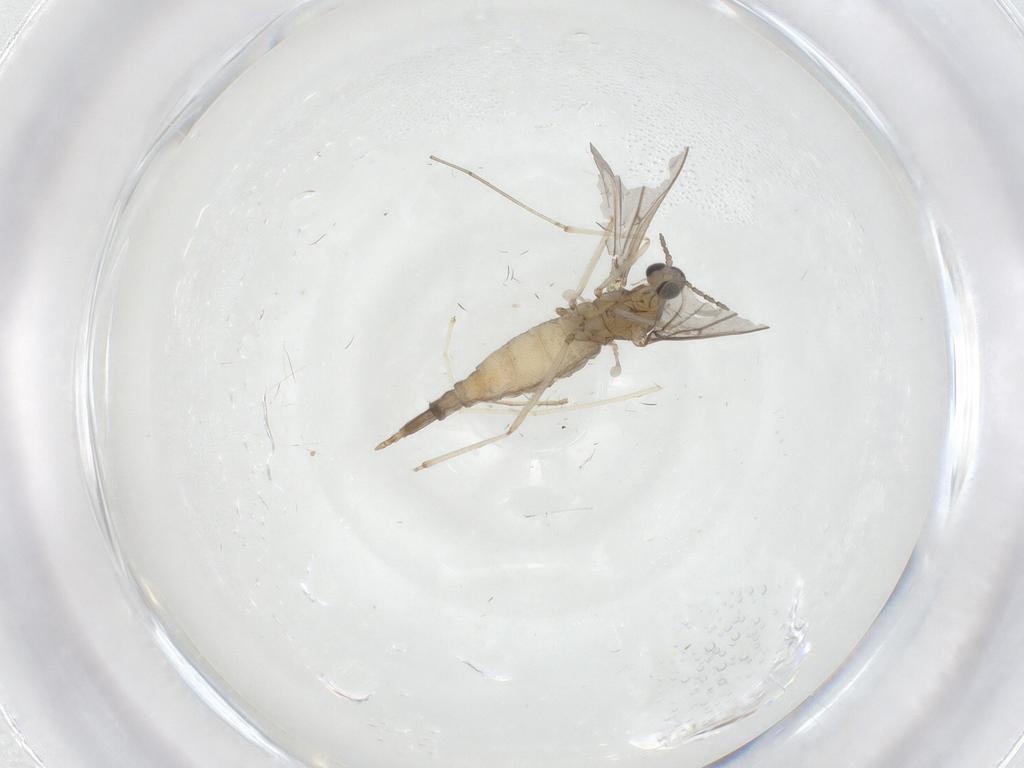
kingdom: Animalia
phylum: Arthropoda
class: Insecta
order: Diptera
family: Cecidomyiidae
